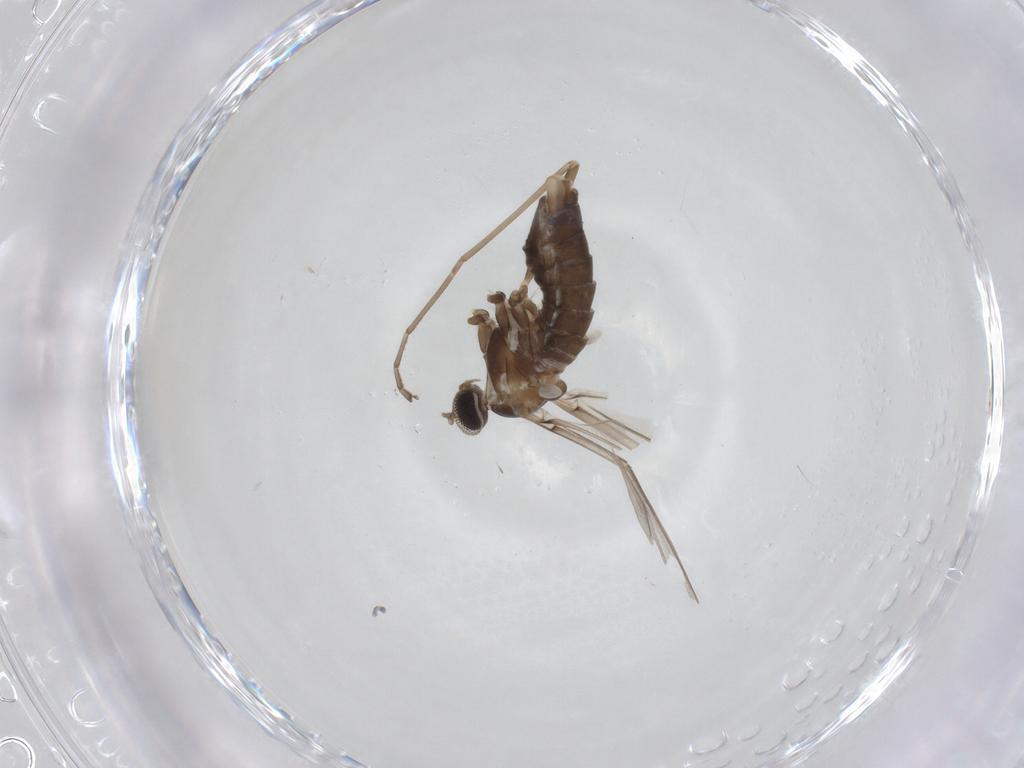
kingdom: Animalia
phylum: Arthropoda
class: Insecta
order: Diptera
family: Cecidomyiidae
